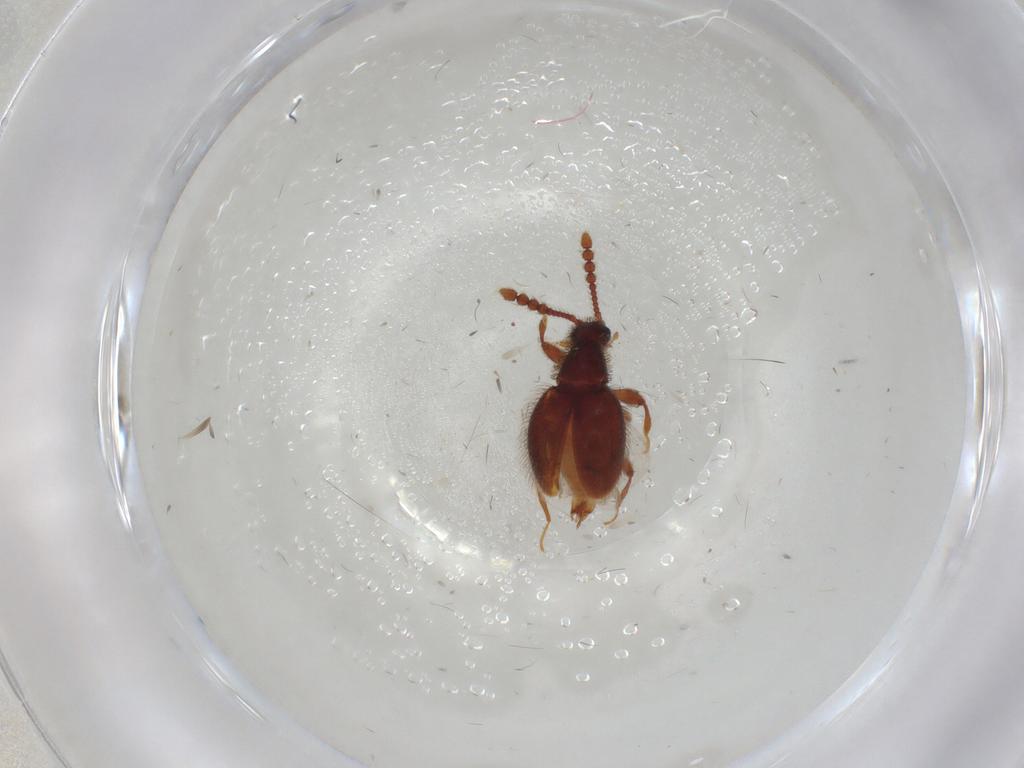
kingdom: Animalia
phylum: Arthropoda
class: Insecta
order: Coleoptera
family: Staphylinidae
